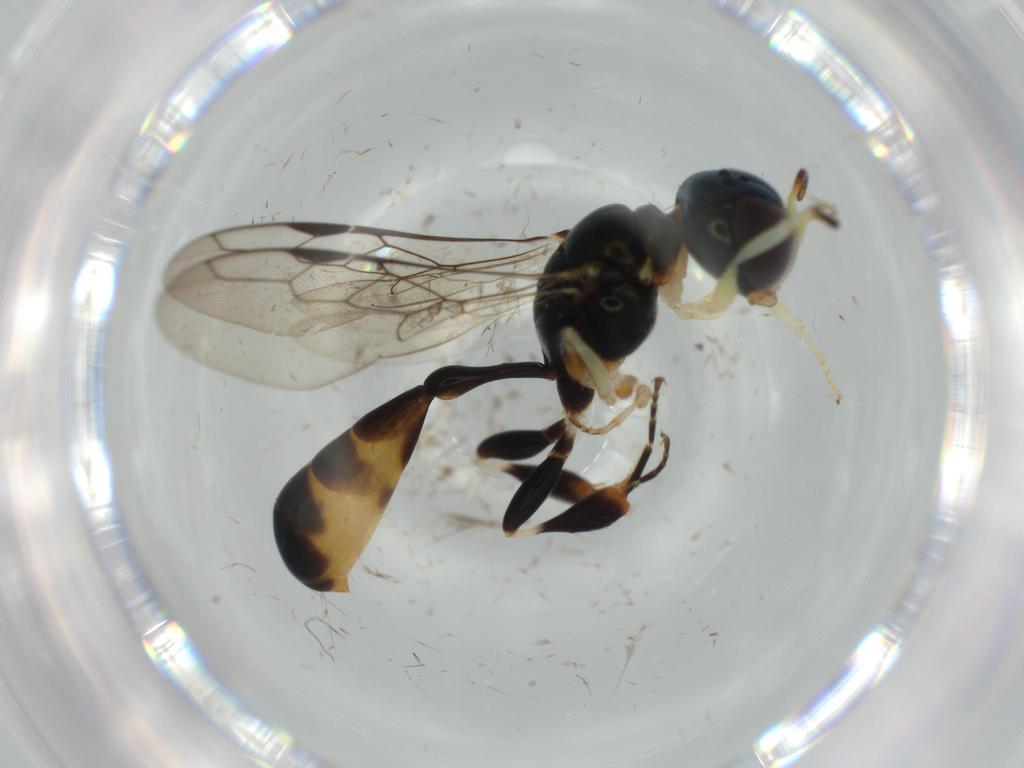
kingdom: Animalia
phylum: Arthropoda
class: Insecta
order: Hymenoptera
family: Crabronidae
